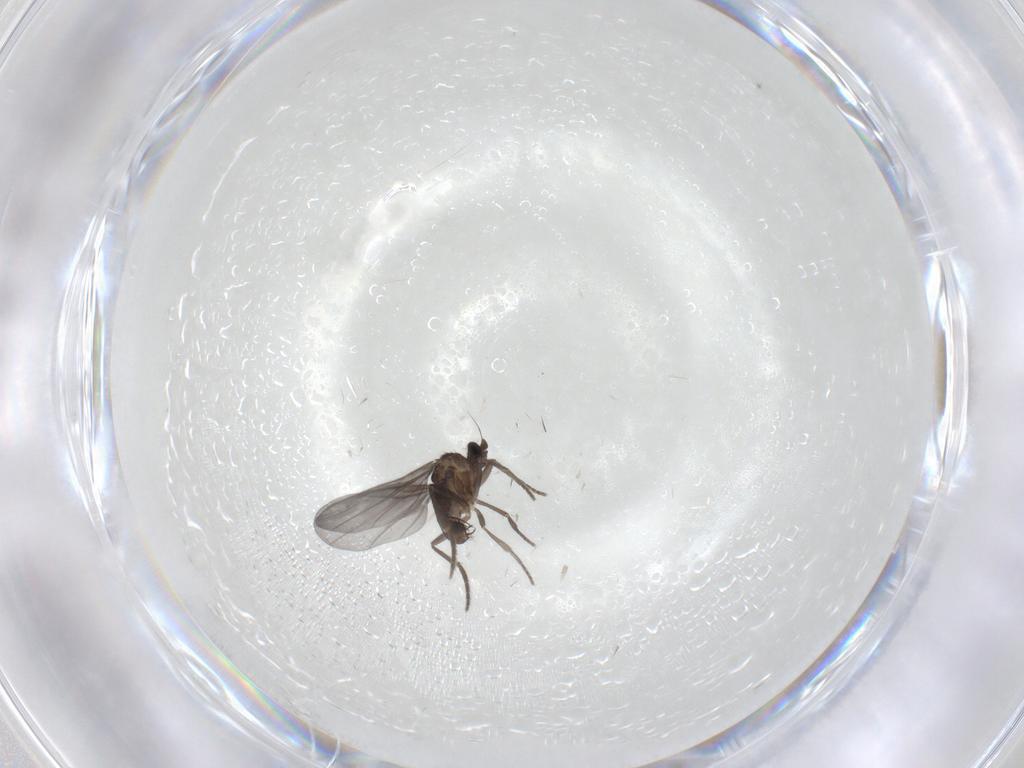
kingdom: Animalia
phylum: Arthropoda
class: Insecta
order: Diptera
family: Phoridae
